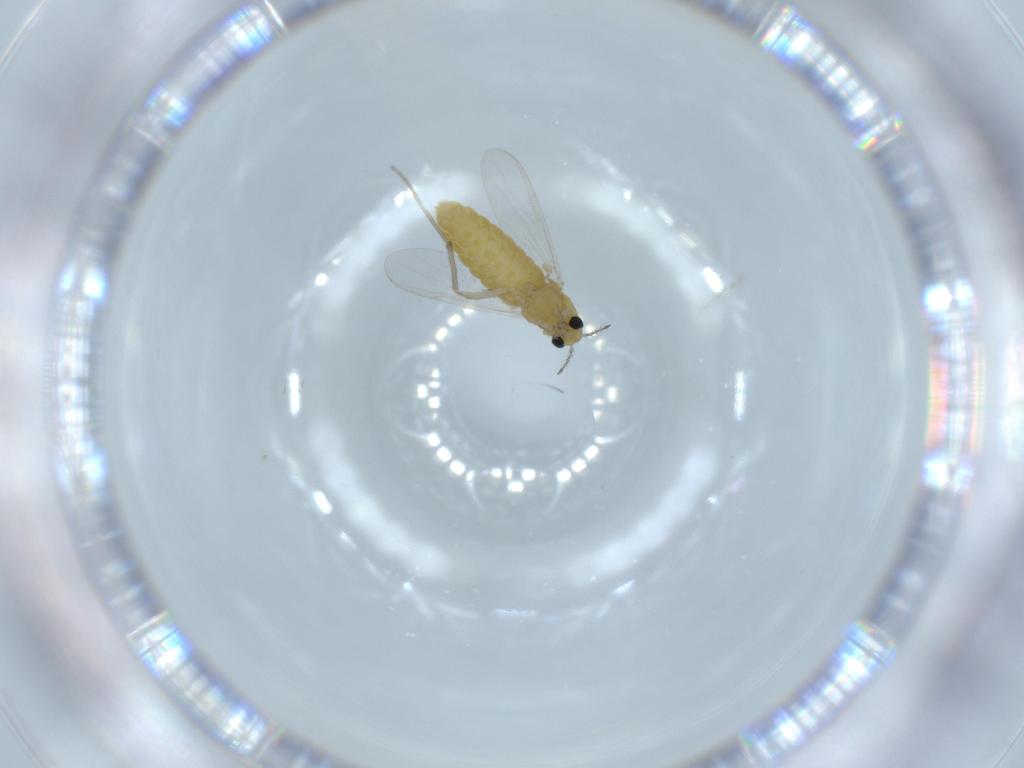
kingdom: Animalia
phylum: Arthropoda
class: Insecta
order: Diptera
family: Chironomidae
